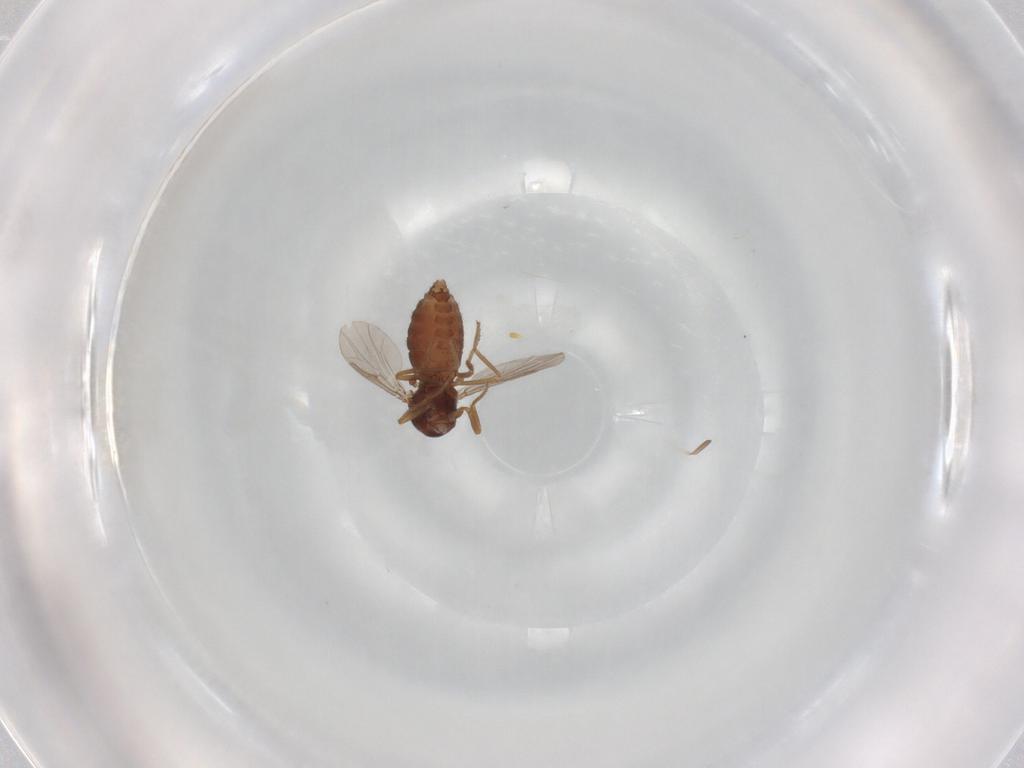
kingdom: Animalia
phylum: Arthropoda
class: Insecta
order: Diptera
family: Ceratopogonidae
